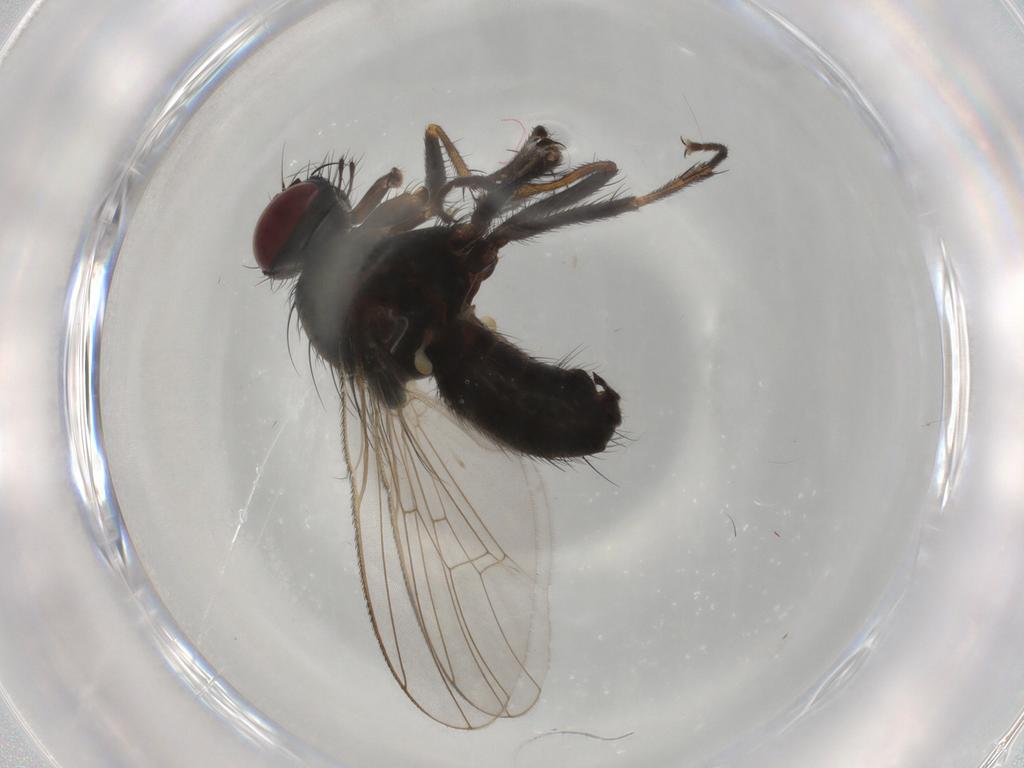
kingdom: Animalia
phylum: Arthropoda
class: Insecta
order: Diptera
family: Cecidomyiidae
